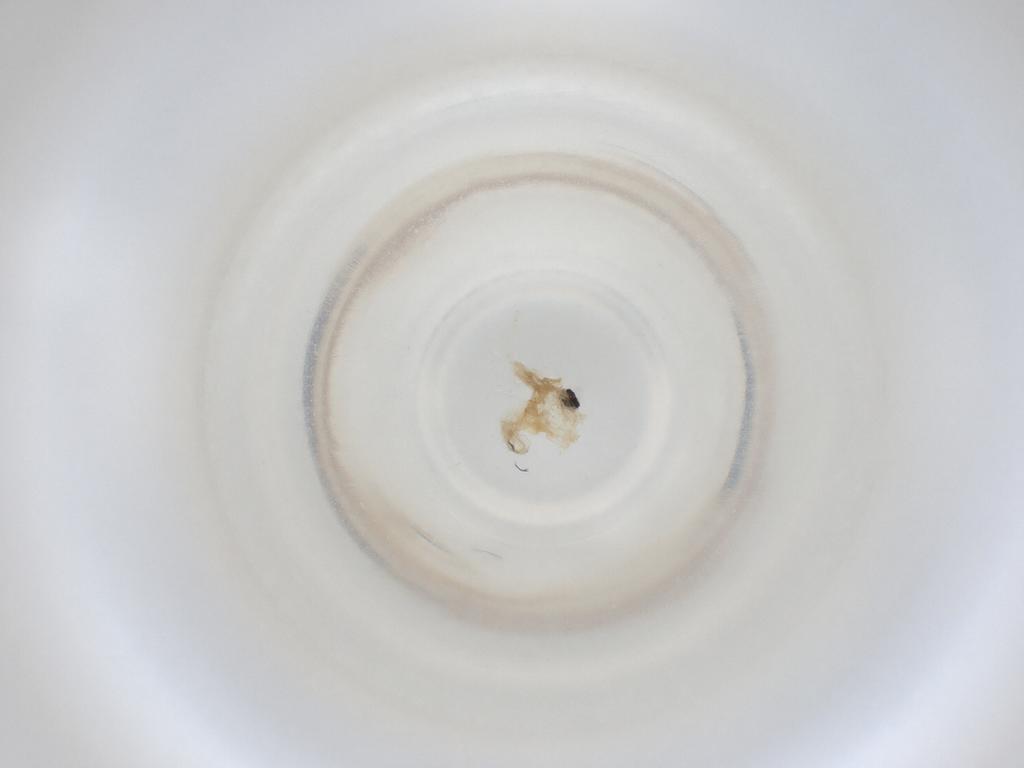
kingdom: Animalia
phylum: Arthropoda
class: Insecta
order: Diptera
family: Cecidomyiidae
